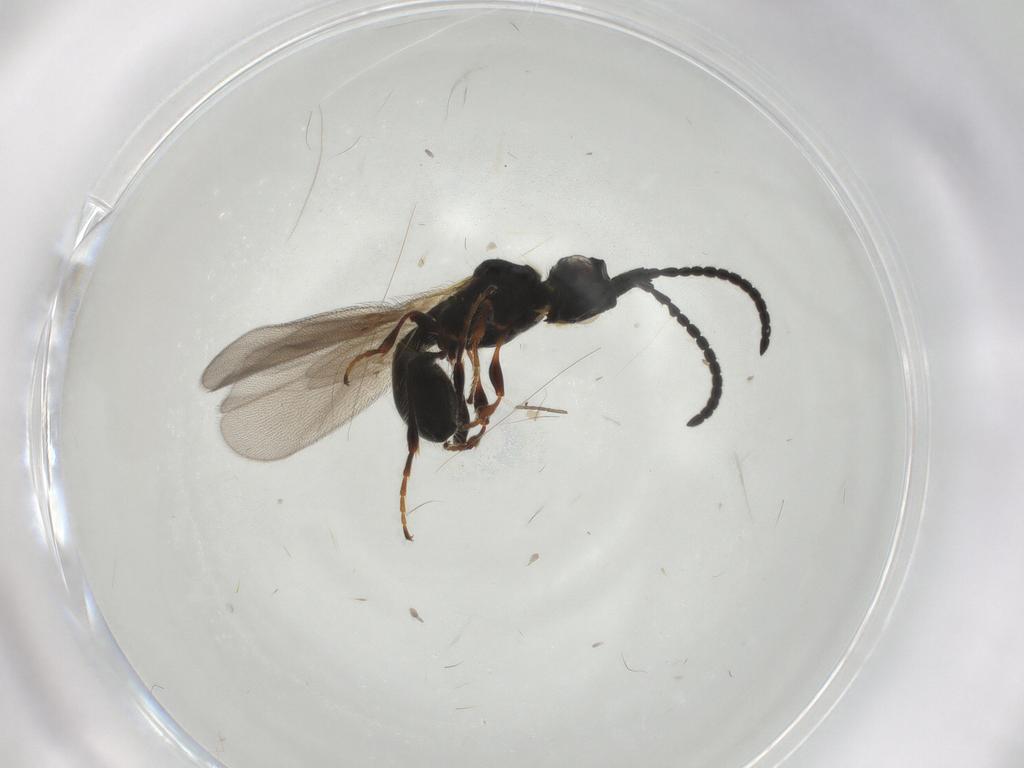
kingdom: Animalia
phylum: Arthropoda
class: Insecta
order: Hymenoptera
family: Diapriidae
